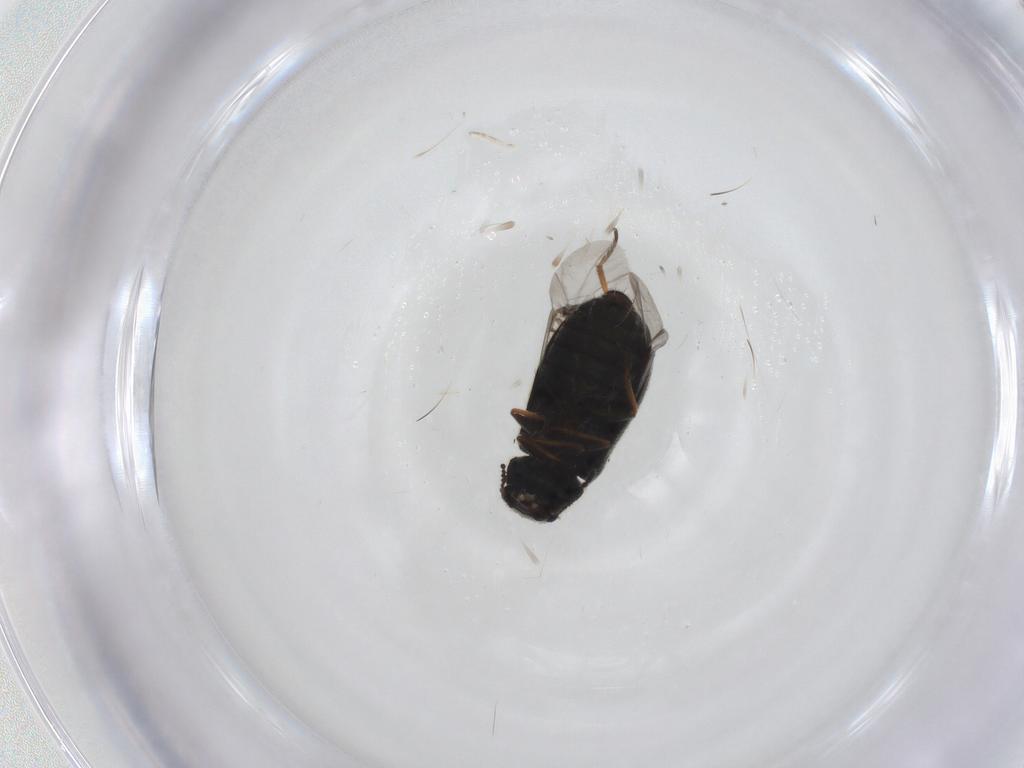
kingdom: Animalia
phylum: Arthropoda
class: Insecta
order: Coleoptera
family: Melyridae
